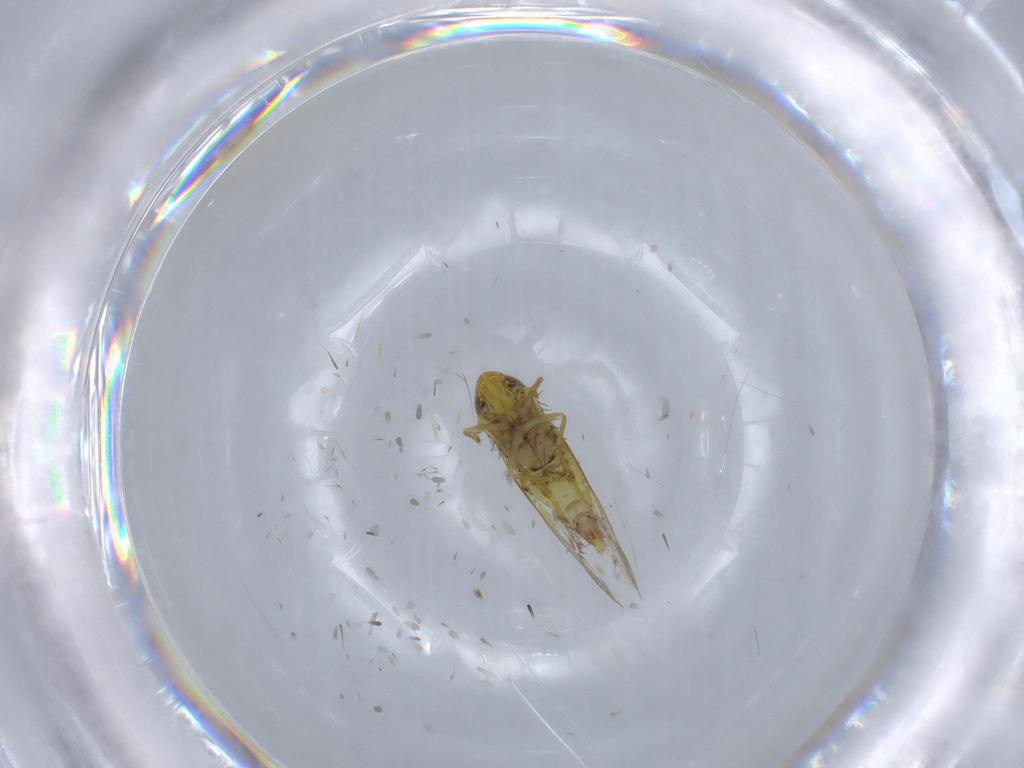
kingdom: Animalia
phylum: Arthropoda
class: Insecta
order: Hemiptera
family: Cicadellidae
